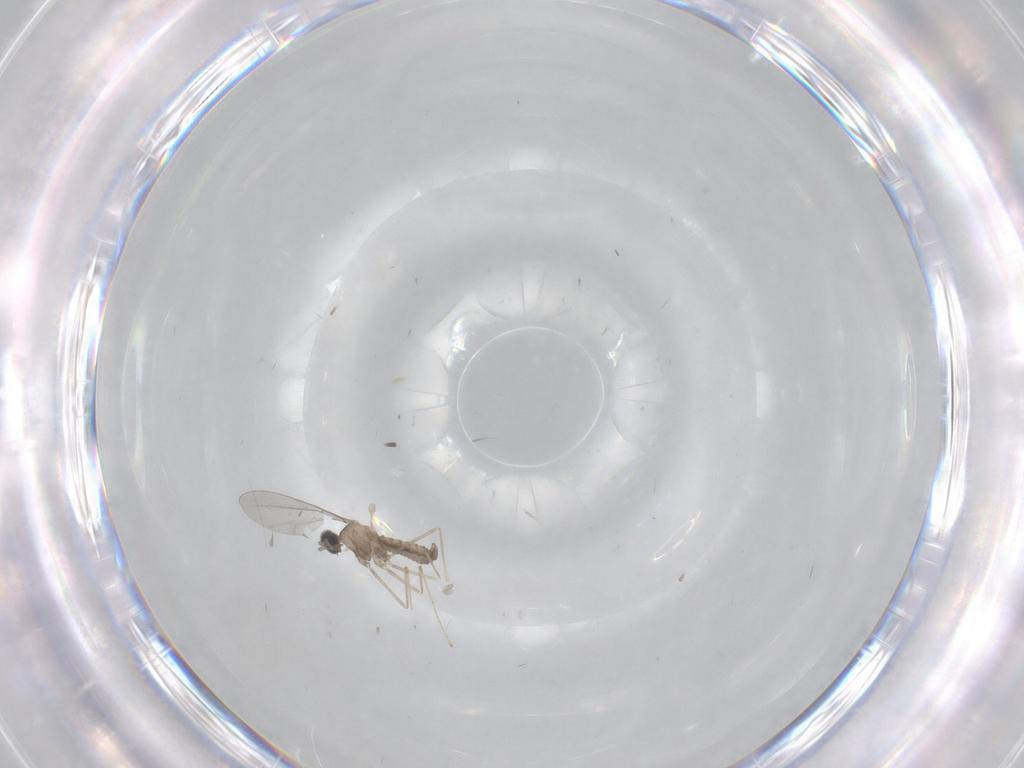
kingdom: Animalia
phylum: Arthropoda
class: Insecta
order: Diptera
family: Cecidomyiidae
